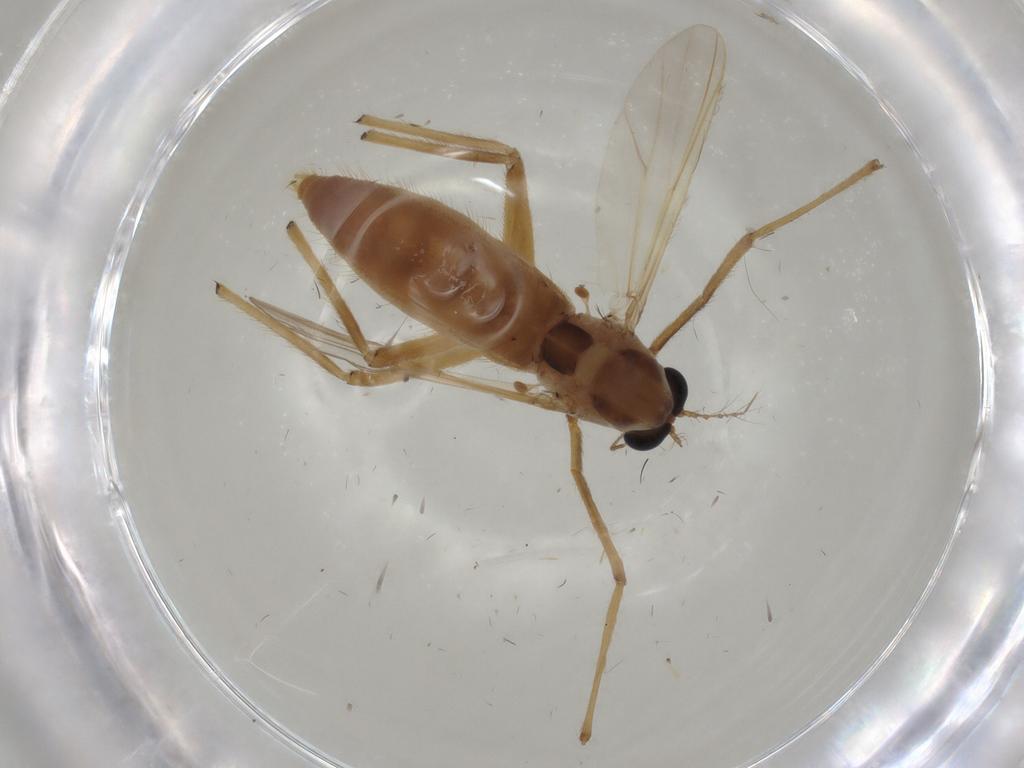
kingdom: Animalia
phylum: Arthropoda
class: Insecta
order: Diptera
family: Chironomidae
